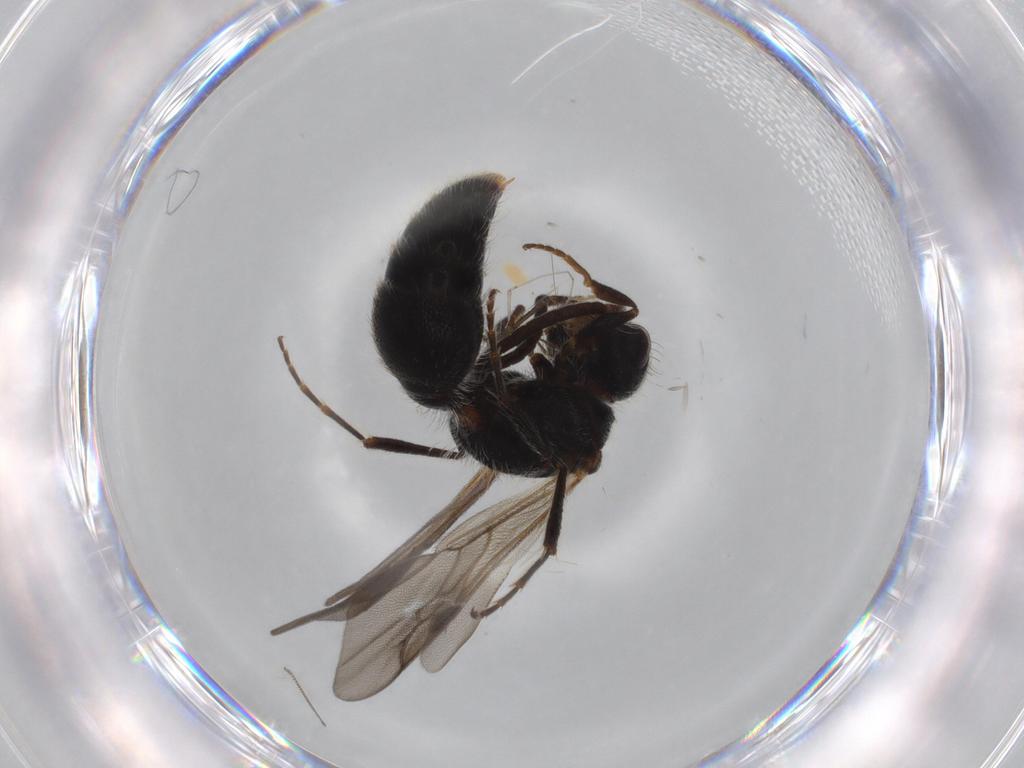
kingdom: Animalia
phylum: Arthropoda
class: Insecta
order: Hymenoptera
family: Mutillidae
